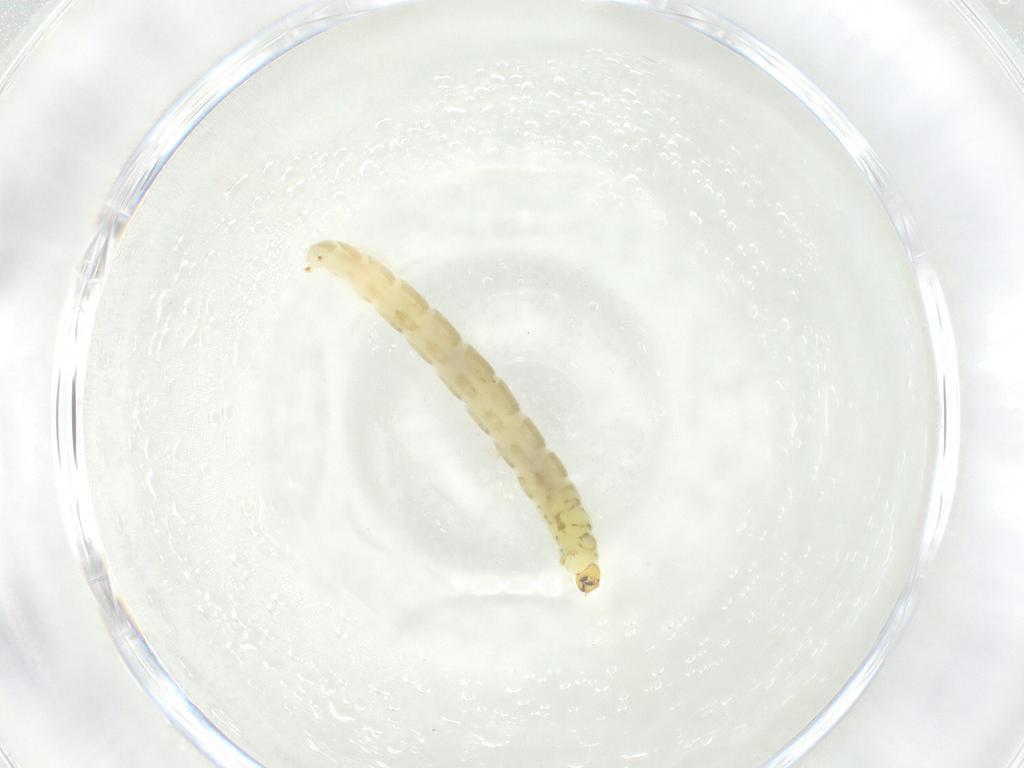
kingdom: Animalia
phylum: Arthropoda
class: Insecta
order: Diptera
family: Chironomidae
